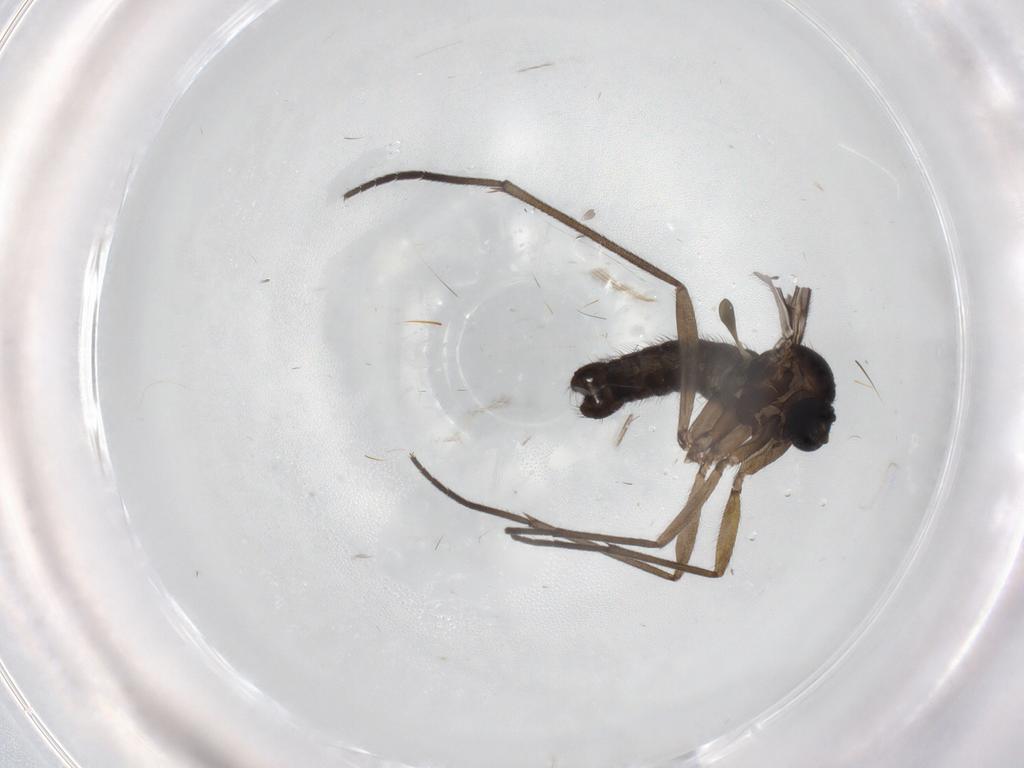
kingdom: Animalia
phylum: Arthropoda
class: Insecta
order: Diptera
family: Sciaridae
